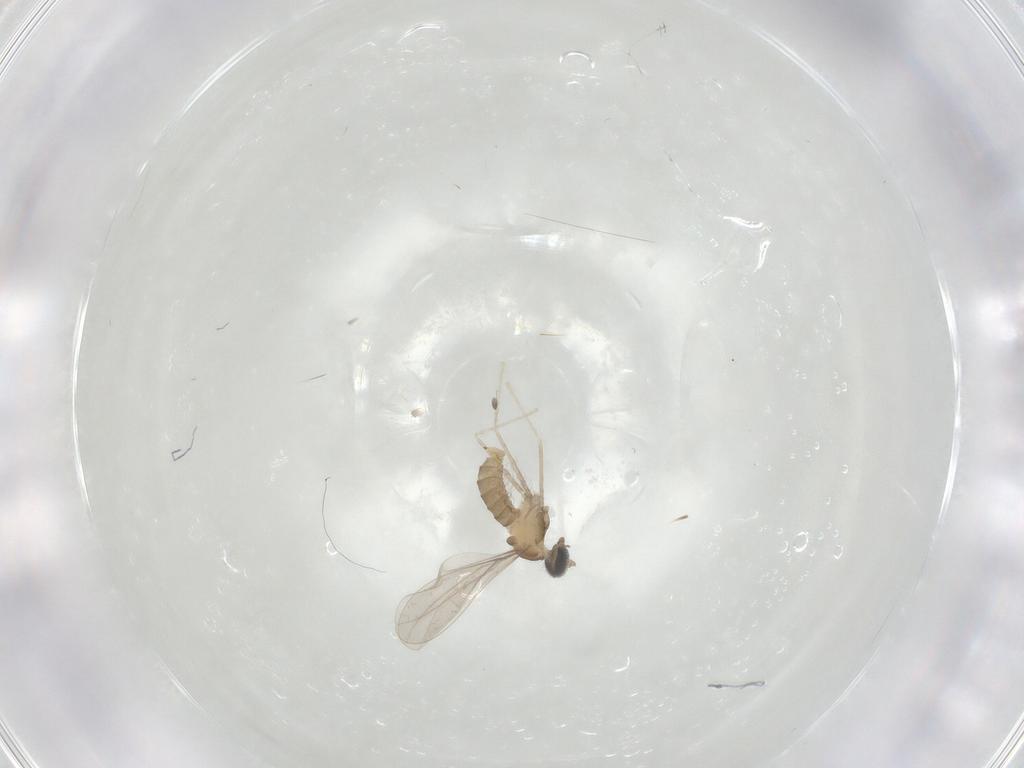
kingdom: Animalia
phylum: Arthropoda
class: Insecta
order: Diptera
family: Cecidomyiidae
